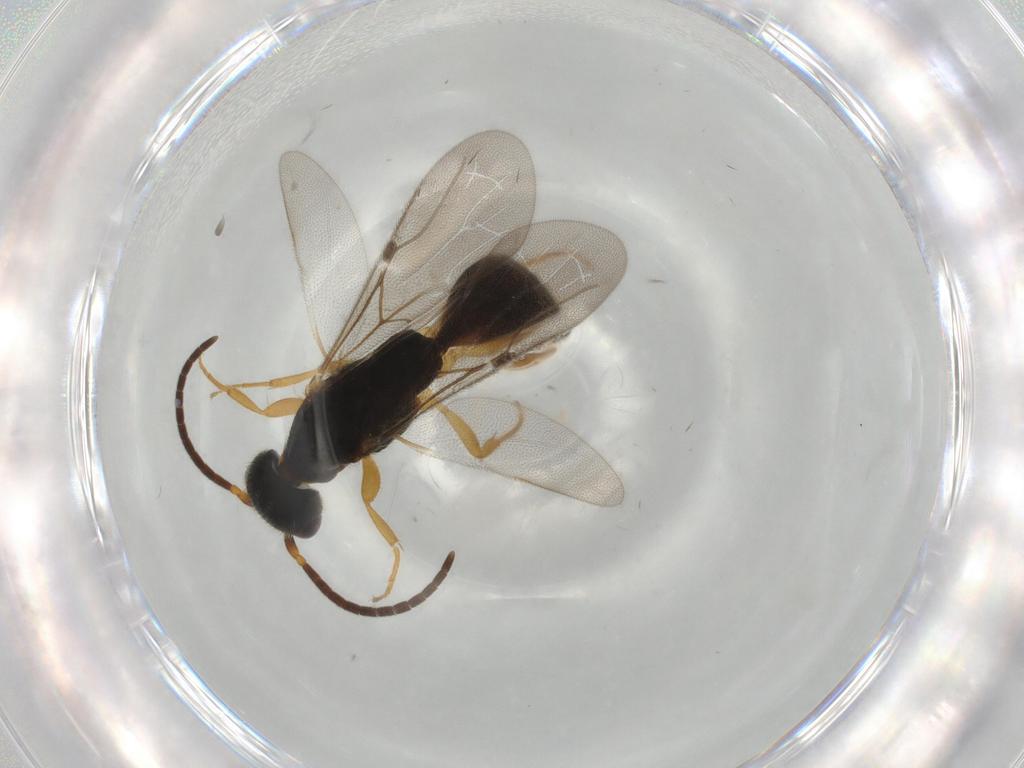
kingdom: Animalia
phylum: Arthropoda
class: Insecta
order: Hymenoptera
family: Bethylidae
